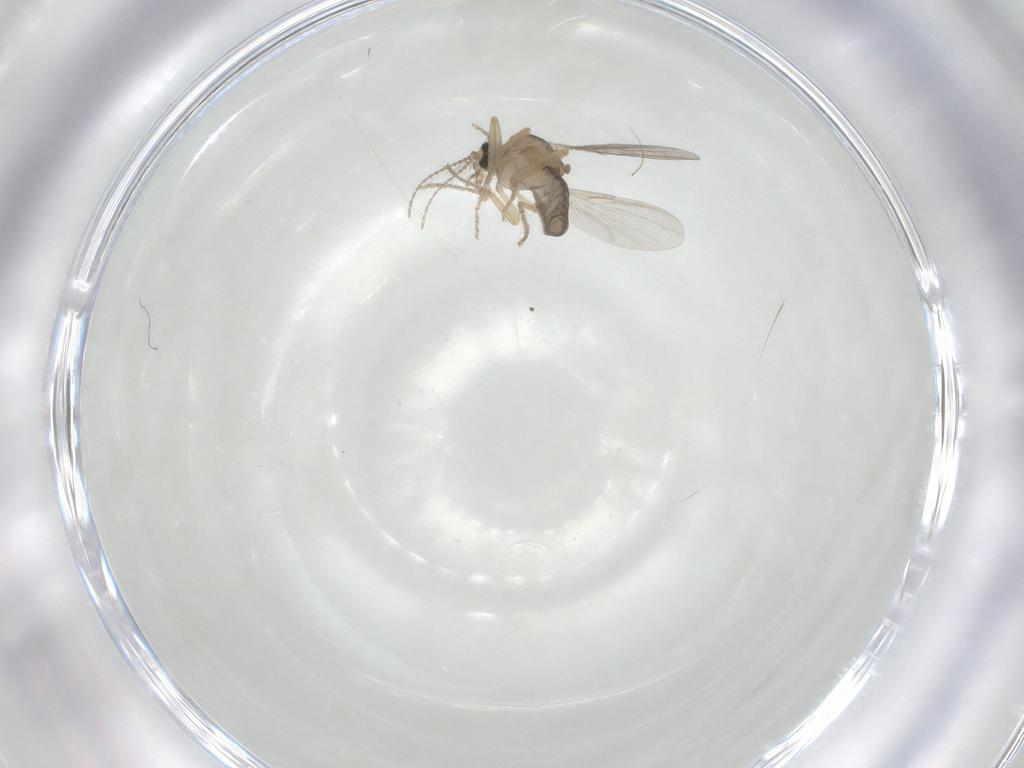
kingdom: Animalia
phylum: Arthropoda
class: Insecta
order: Diptera
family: Ceratopogonidae
